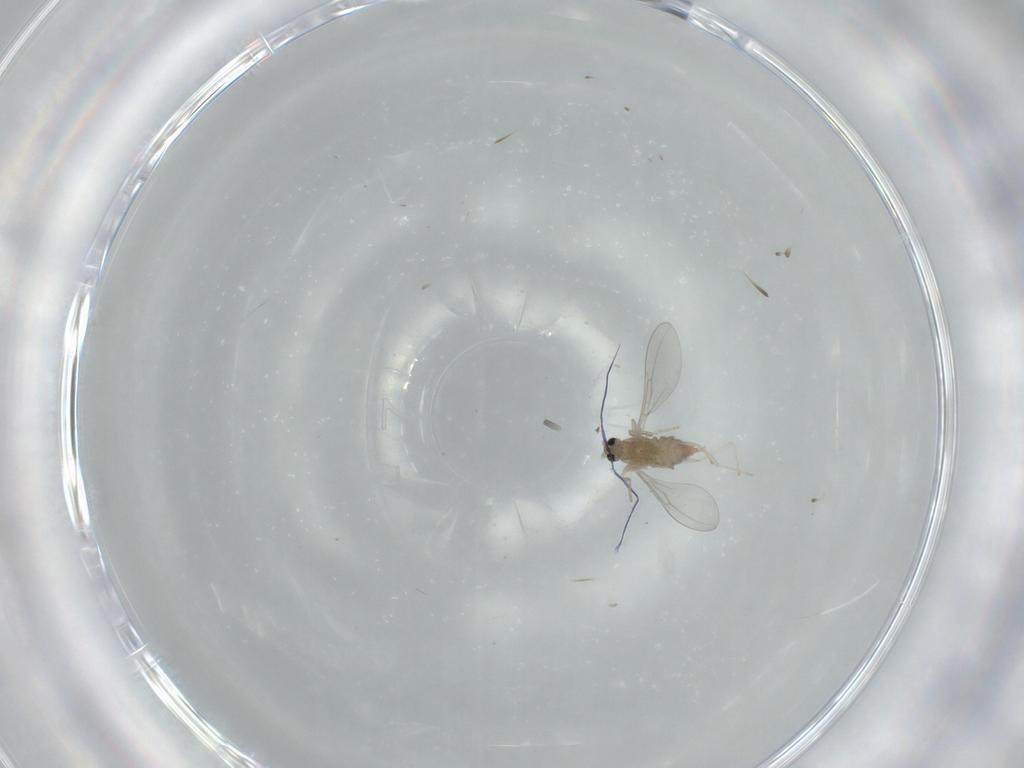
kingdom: Animalia
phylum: Arthropoda
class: Insecta
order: Diptera
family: Cecidomyiidae
